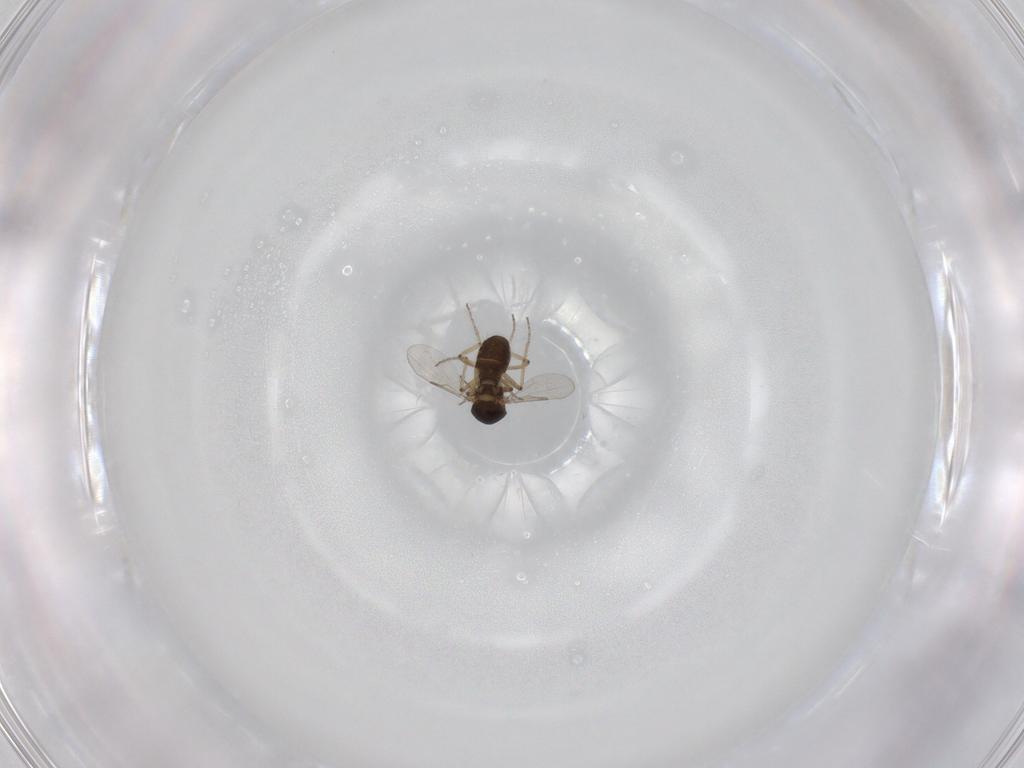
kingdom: Animalia
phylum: Arthropoda
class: Insecta
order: Diptera
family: Ceratopogonidae
